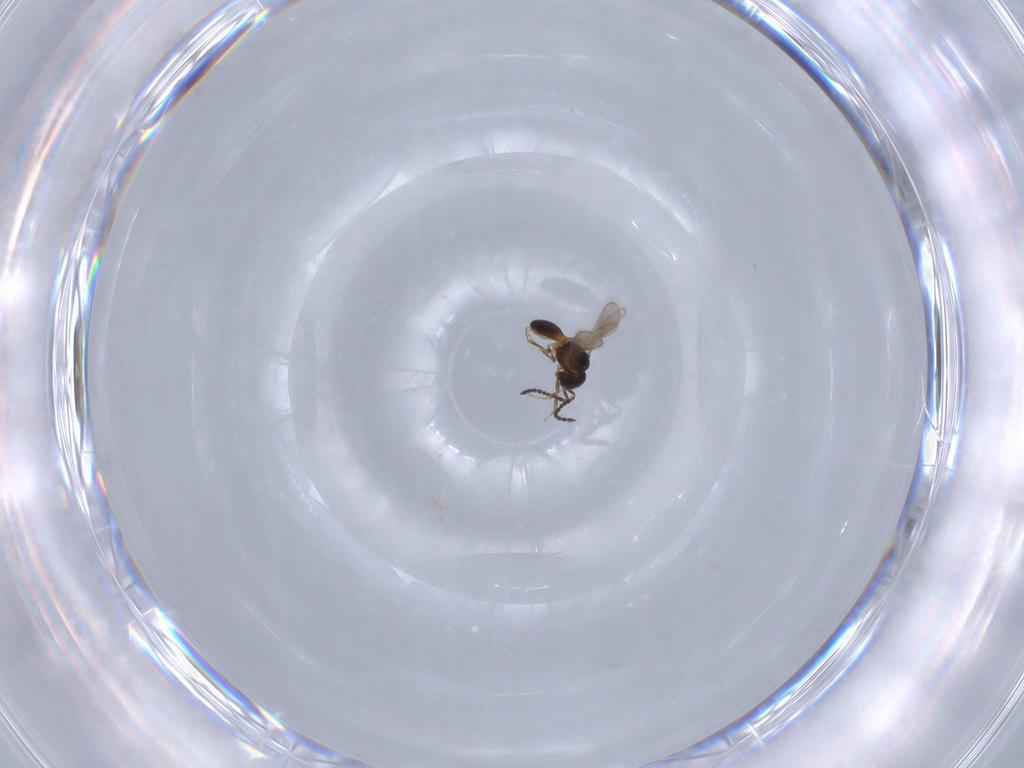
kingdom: Animalia
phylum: Arthropoda
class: Insecta
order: Hymenoptera
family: Scelionidae
